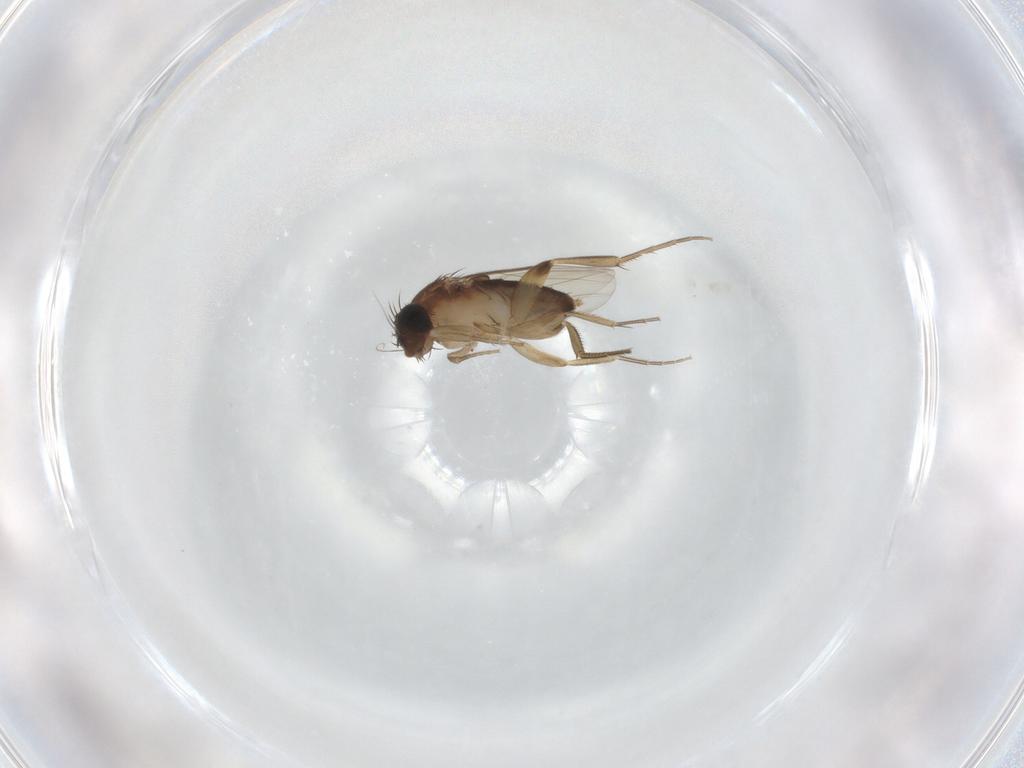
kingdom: Animalia
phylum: Arthropoda
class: Insecta
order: Diptera
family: Phoridae
